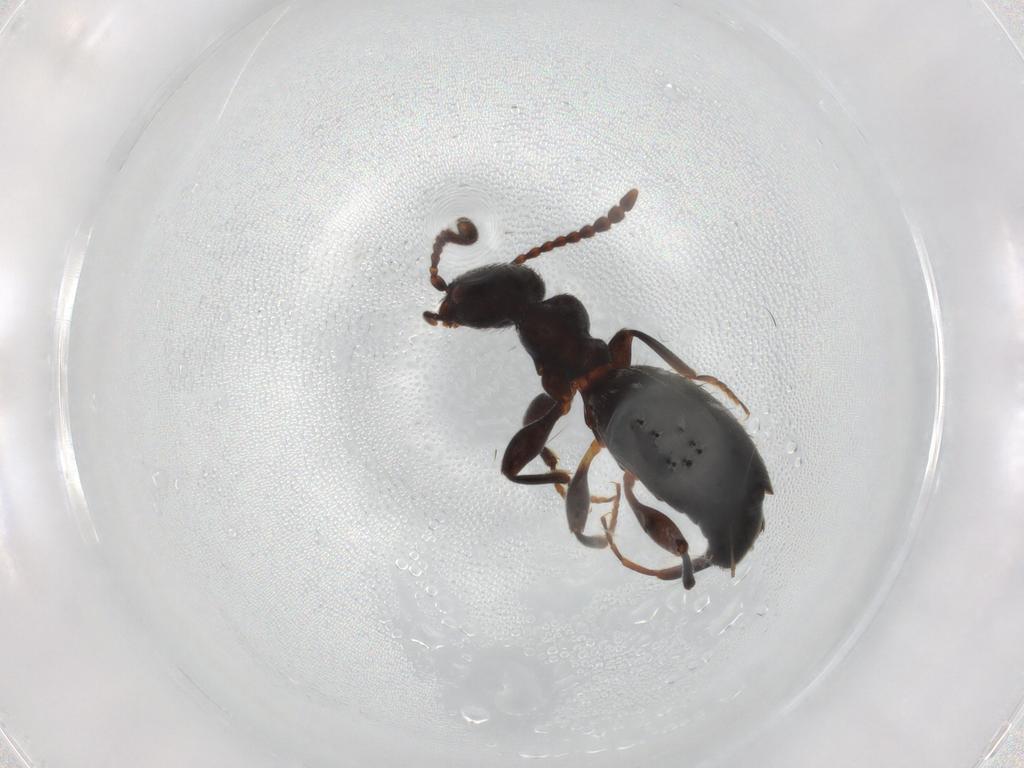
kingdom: Animalia
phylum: Arthropoda
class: Insecta
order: Coleoptera
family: Anthicidae
